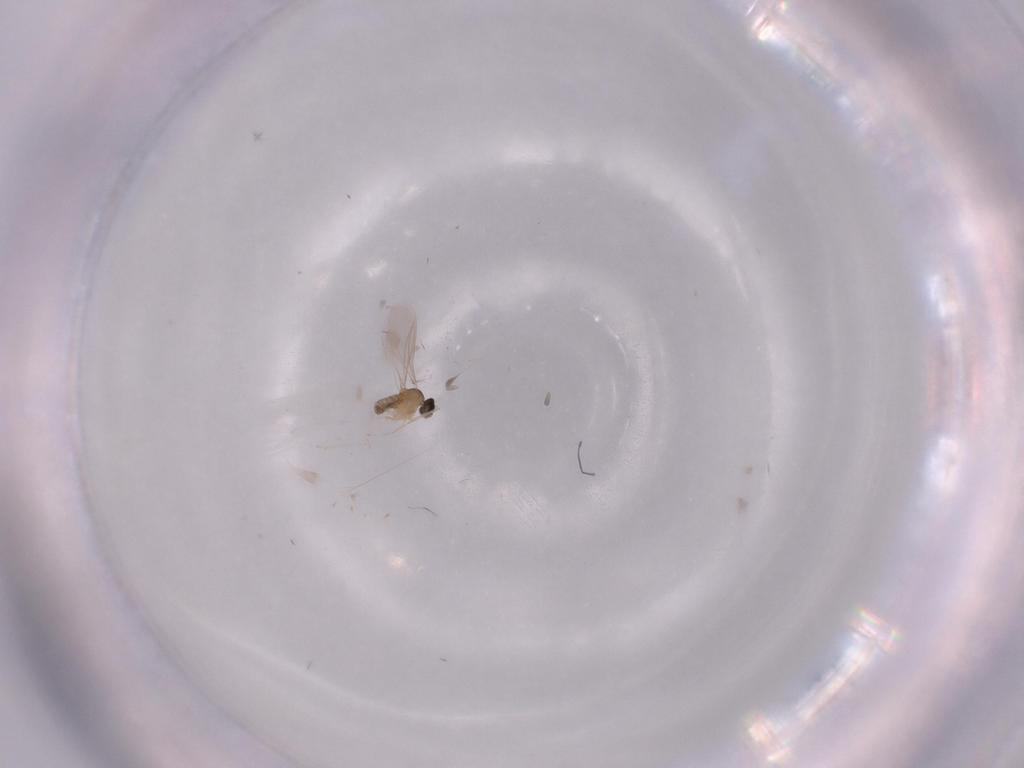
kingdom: Animalia
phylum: Arthropoda
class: Insecta
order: Diptera
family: Cecidomyiidae
